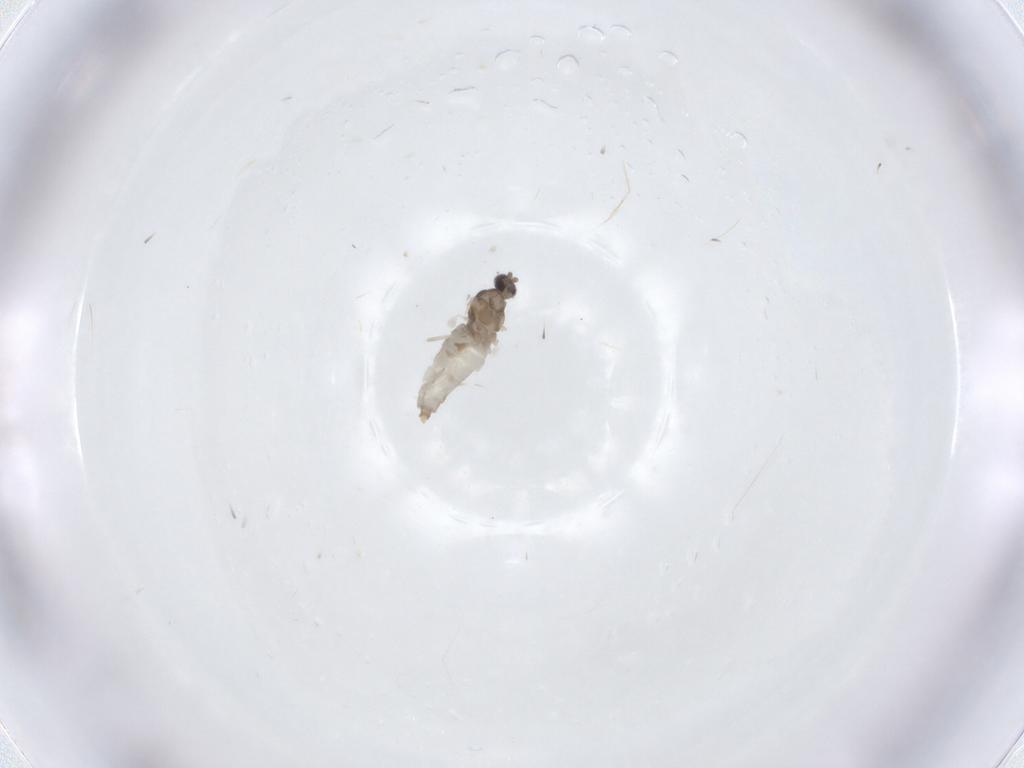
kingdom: Animalia
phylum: Arthropoda
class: Insecta
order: Diptera
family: Cecidomyiidae
